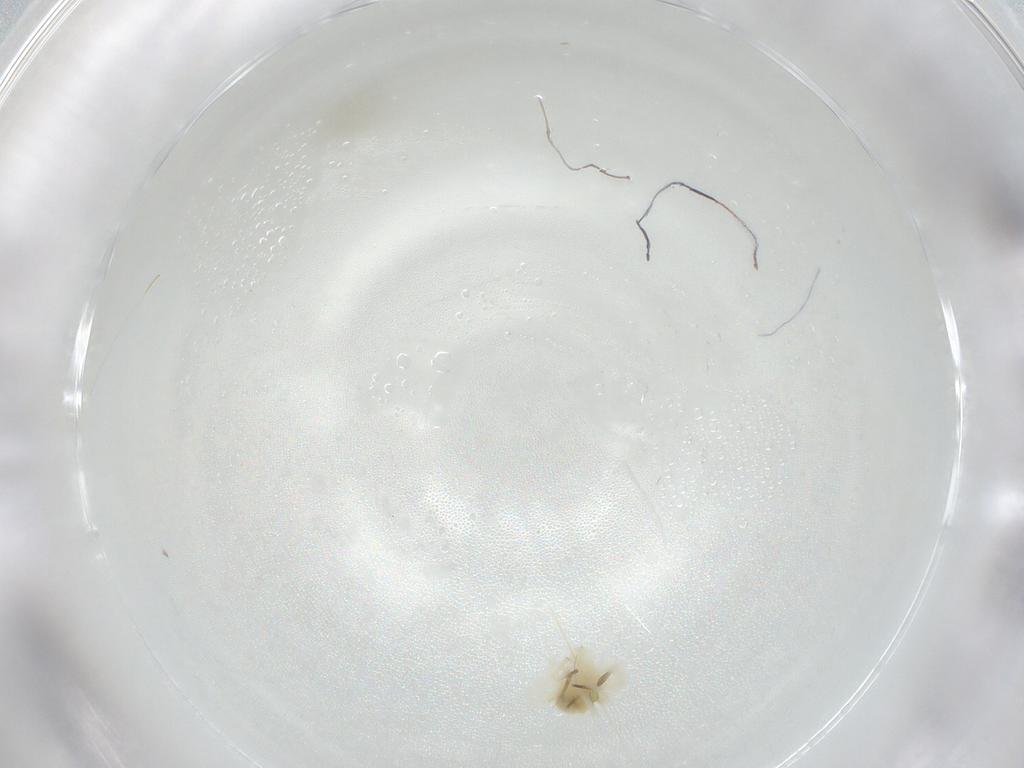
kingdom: Animalia
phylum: Arthropoda
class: Arachnida
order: Trombidiformes
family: Anystidae
